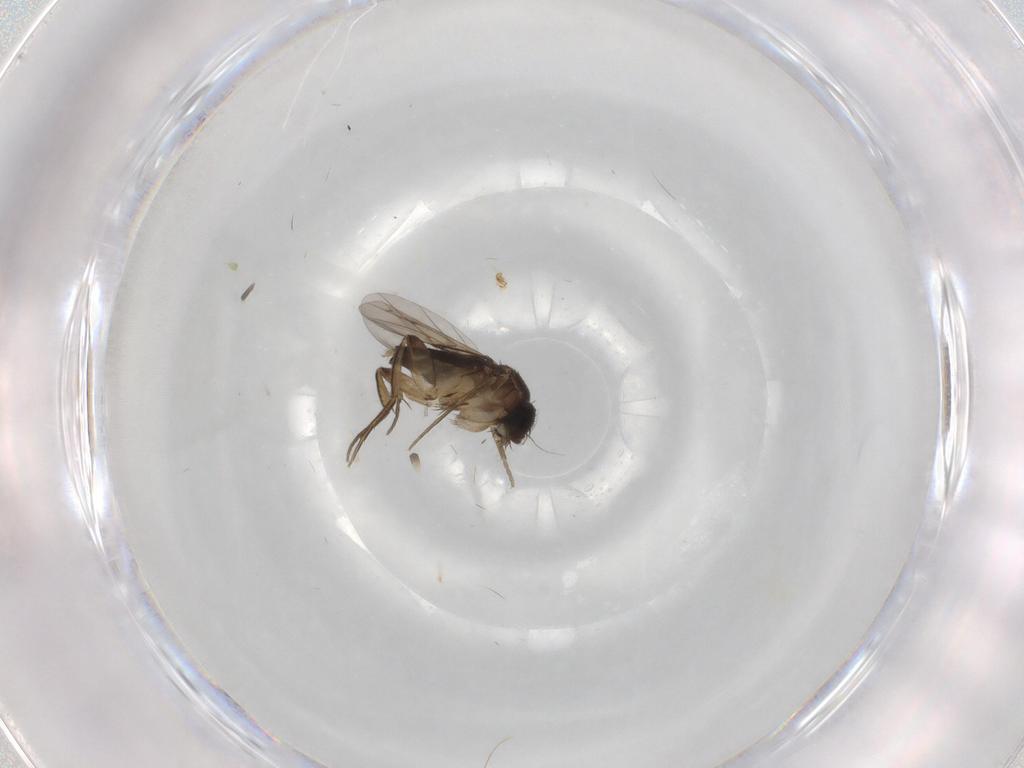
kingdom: Animalia
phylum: Arthropoda
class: Insecta
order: Diptera
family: Phoridae
